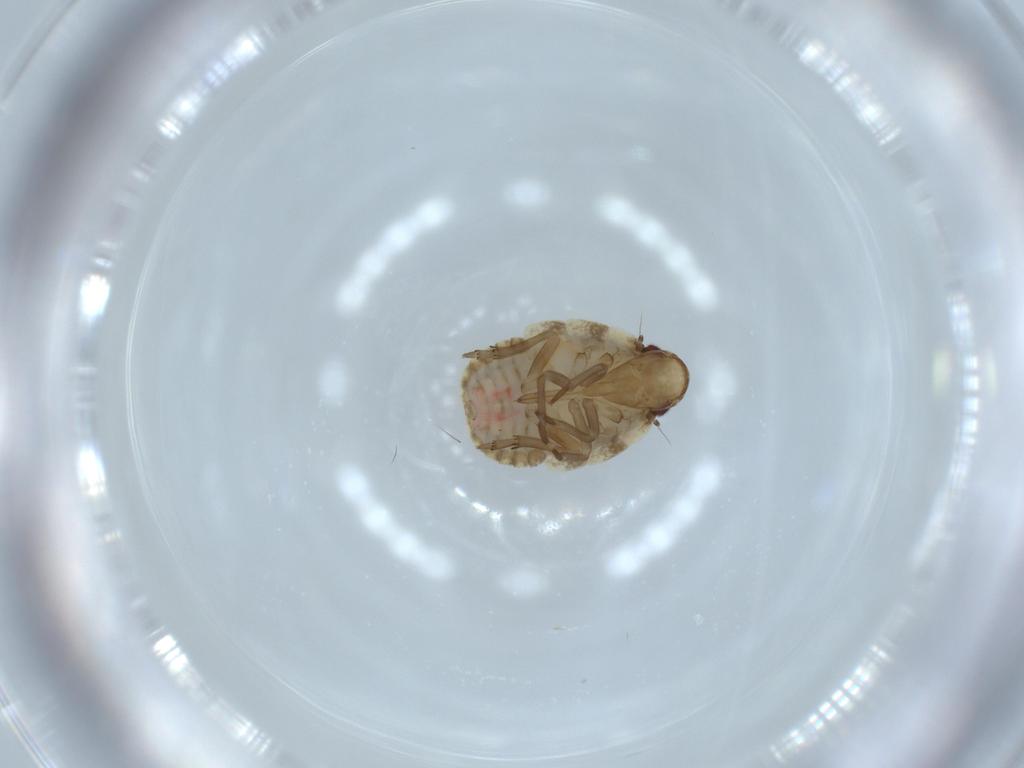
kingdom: Animalia
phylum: Arthropoda
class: Insecta
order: Hemiptera
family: Flatidae
